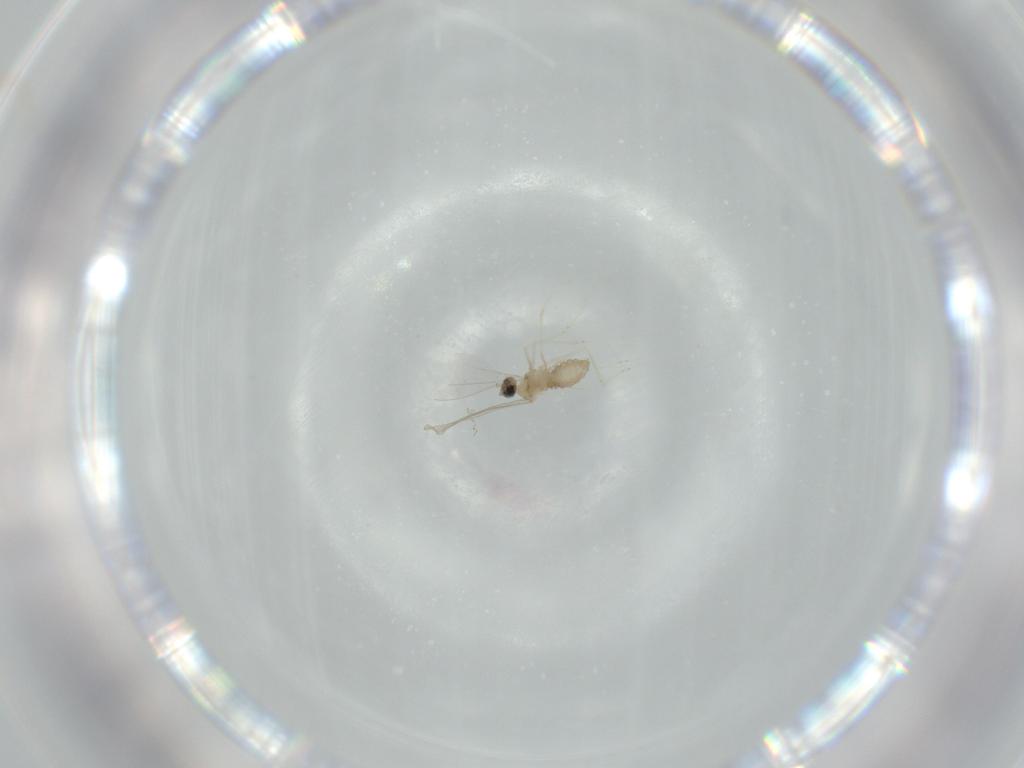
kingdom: Animalia
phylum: Arthropoda
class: Insecta
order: Diptera
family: Cecidomyiidae
